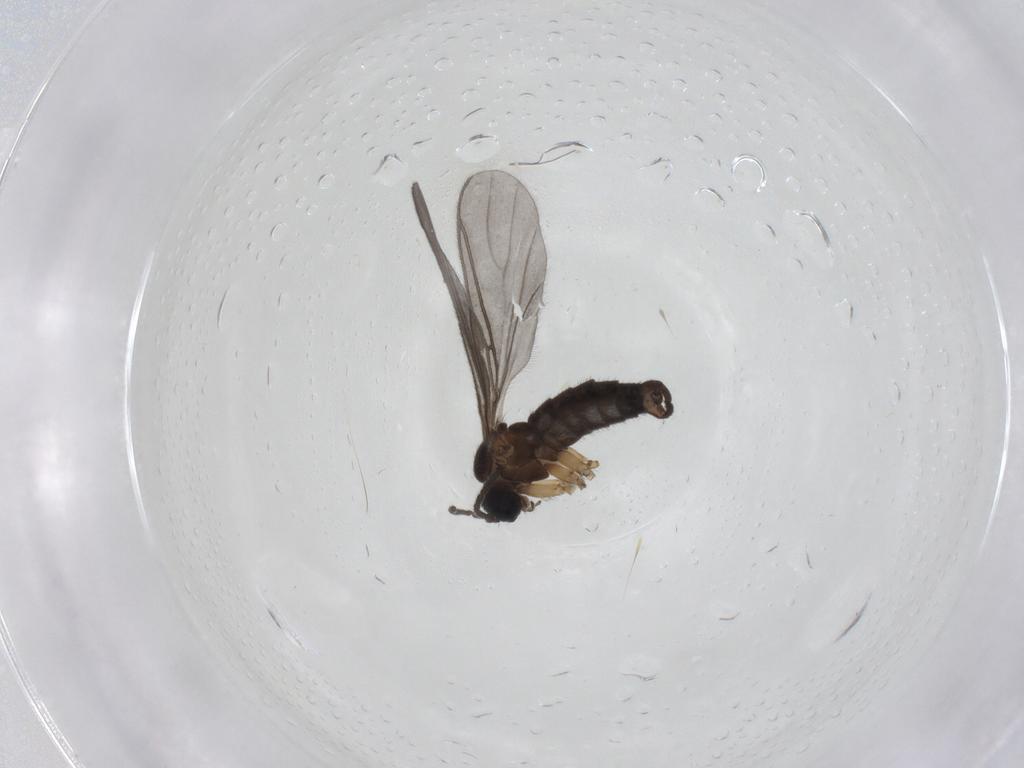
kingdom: Animalia
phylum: Arthropoda
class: Insecta
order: Diptera
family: Sciaridae
